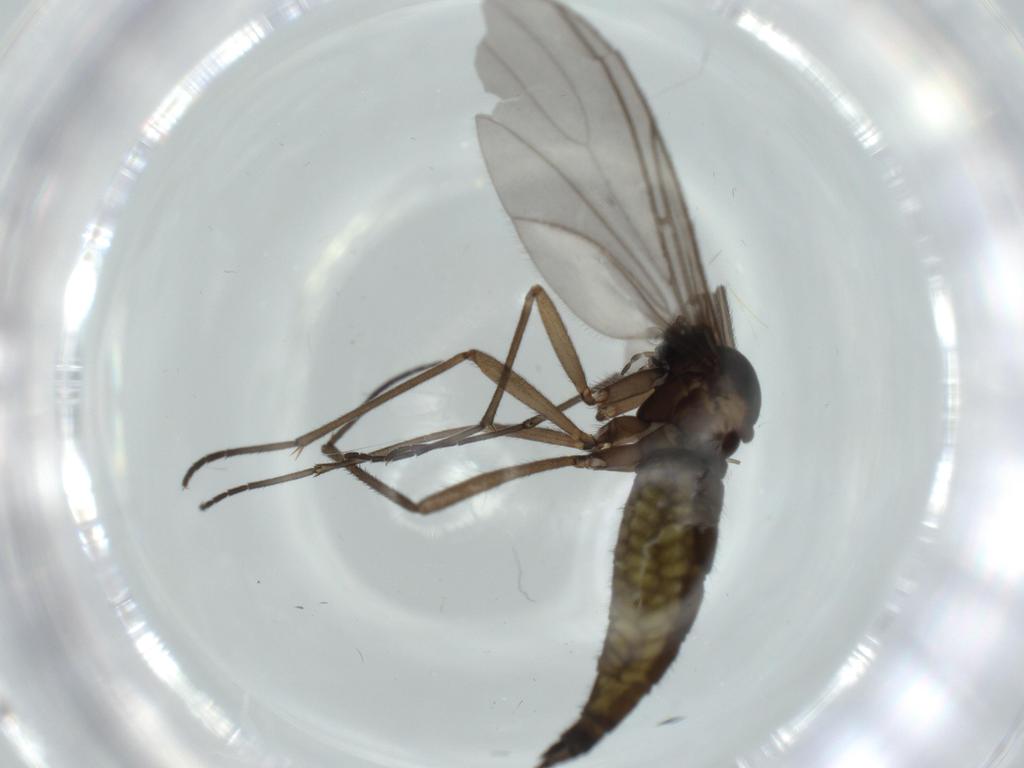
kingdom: Animalia
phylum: Arthropoda
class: Insecta
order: Diptera
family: Sciaridae
